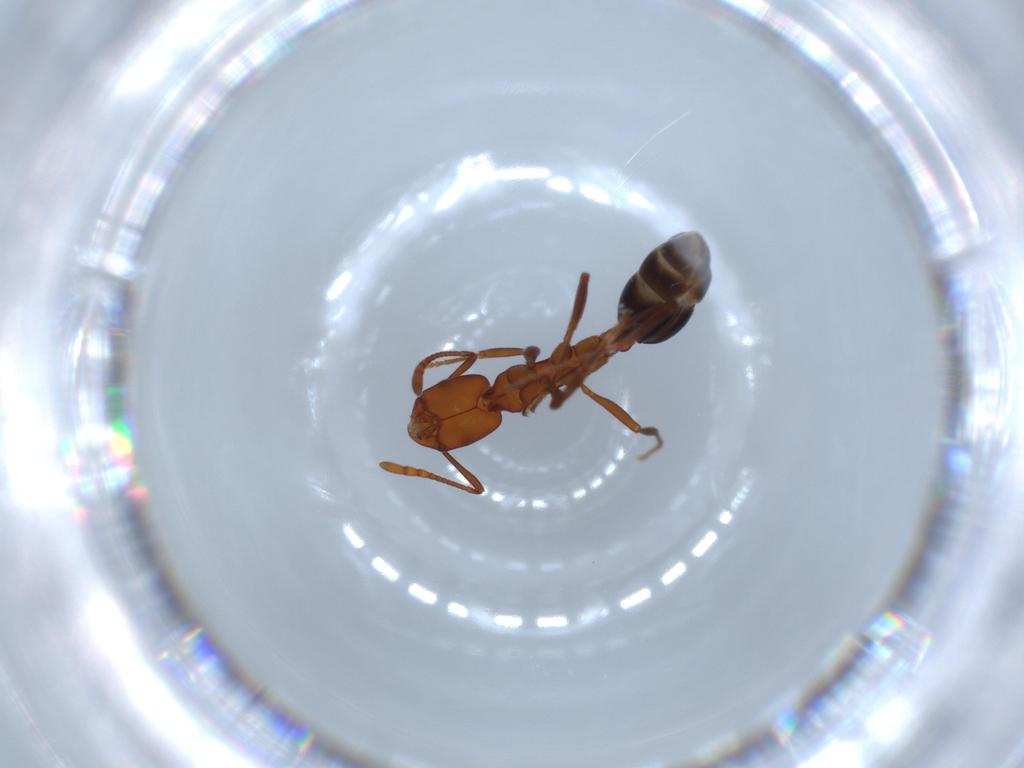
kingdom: Animalia
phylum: Arthropoda
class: Insecta
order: Hymenoptera
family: Formicidae
